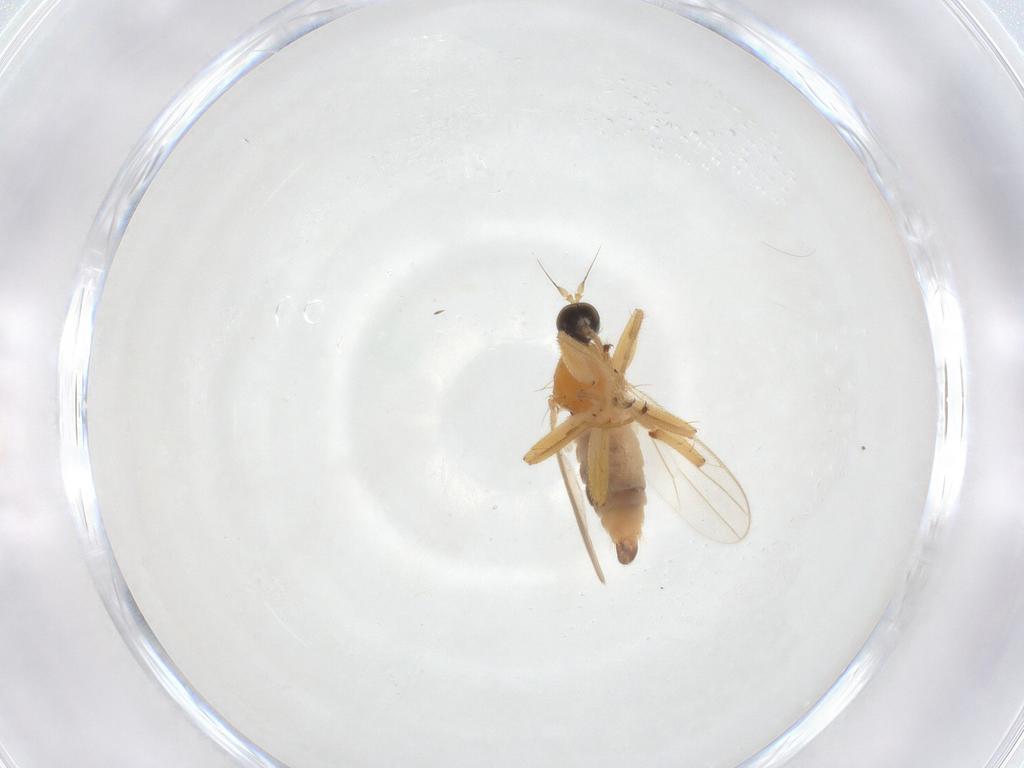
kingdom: Animalia
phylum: Arthropoda
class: Insecta
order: Diptera
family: Hybotidae
